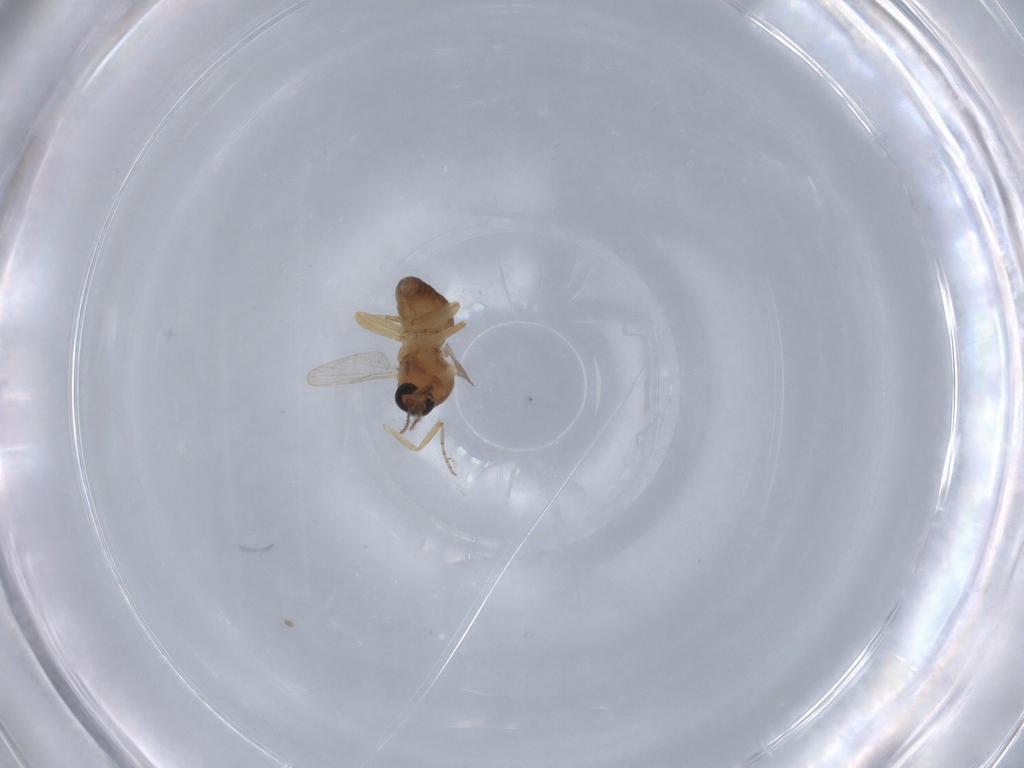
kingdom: Animalia
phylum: Arthropoda
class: Insecta
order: Diptera
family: Ceratopogonidae
